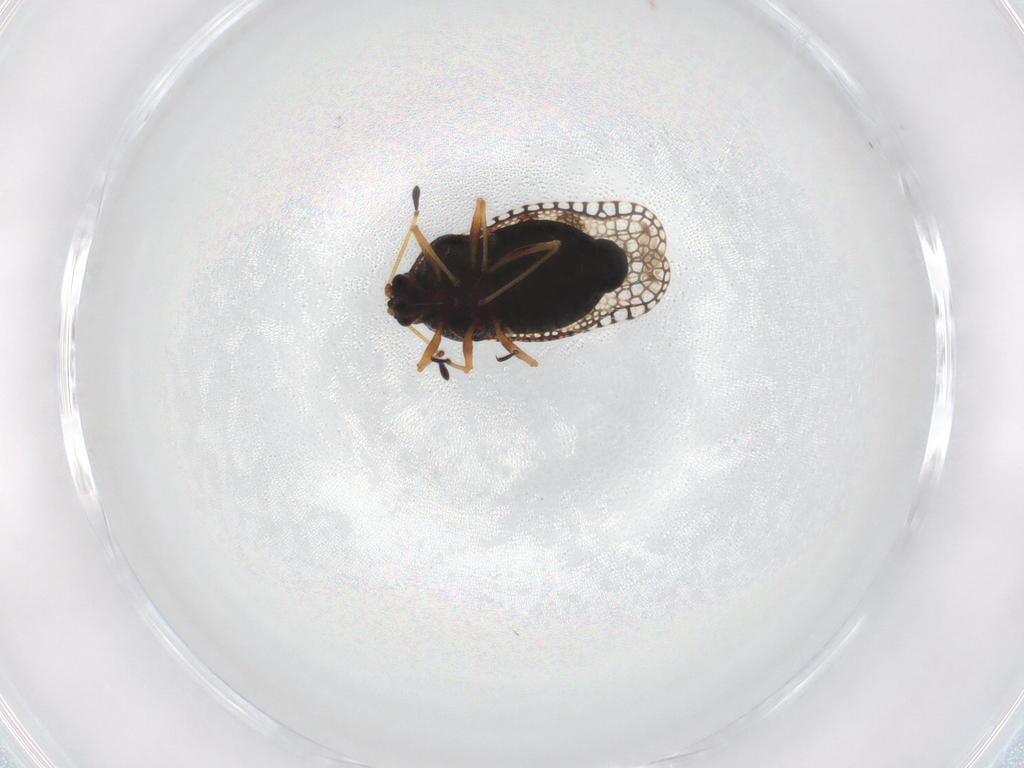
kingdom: Animalia
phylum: Arthropoda
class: Insecta
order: Hemiptera
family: Tingidae
